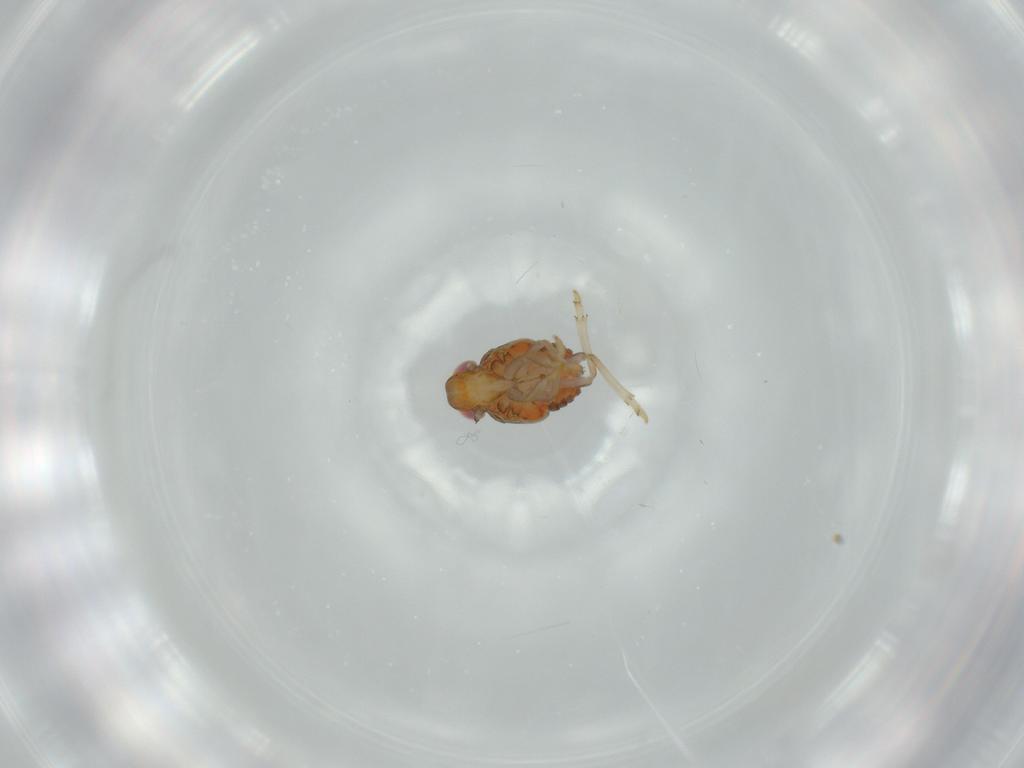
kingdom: Animalia
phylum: Arthropoda
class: Insecta
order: Hemiptera
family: Issidae
